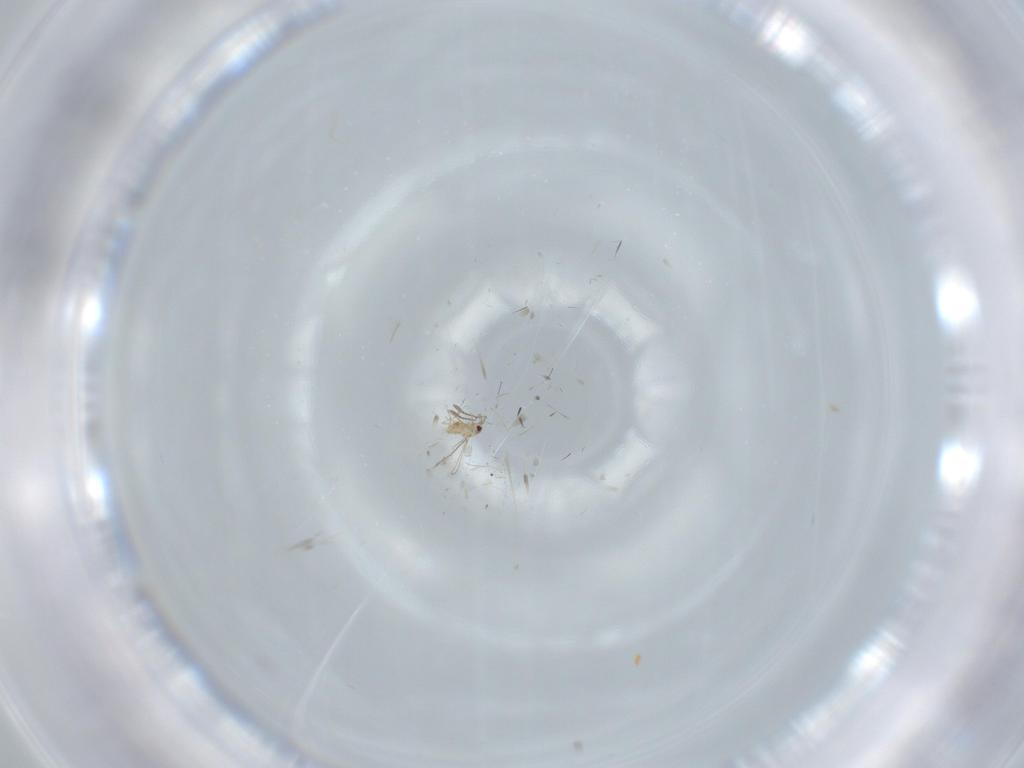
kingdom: Animalia
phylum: Arthropoda
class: Insecta
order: Hymenoptera
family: Mymaridae
